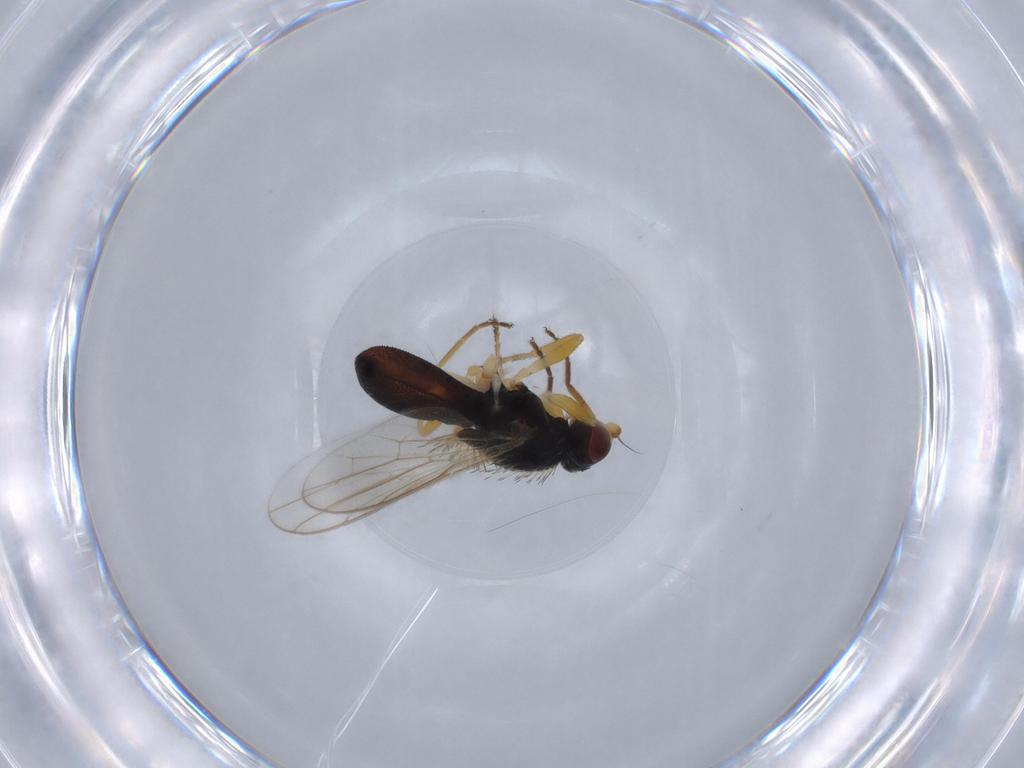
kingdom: Animalia
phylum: Arthropoda
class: Insecta
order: Diptera
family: Chloropidae
